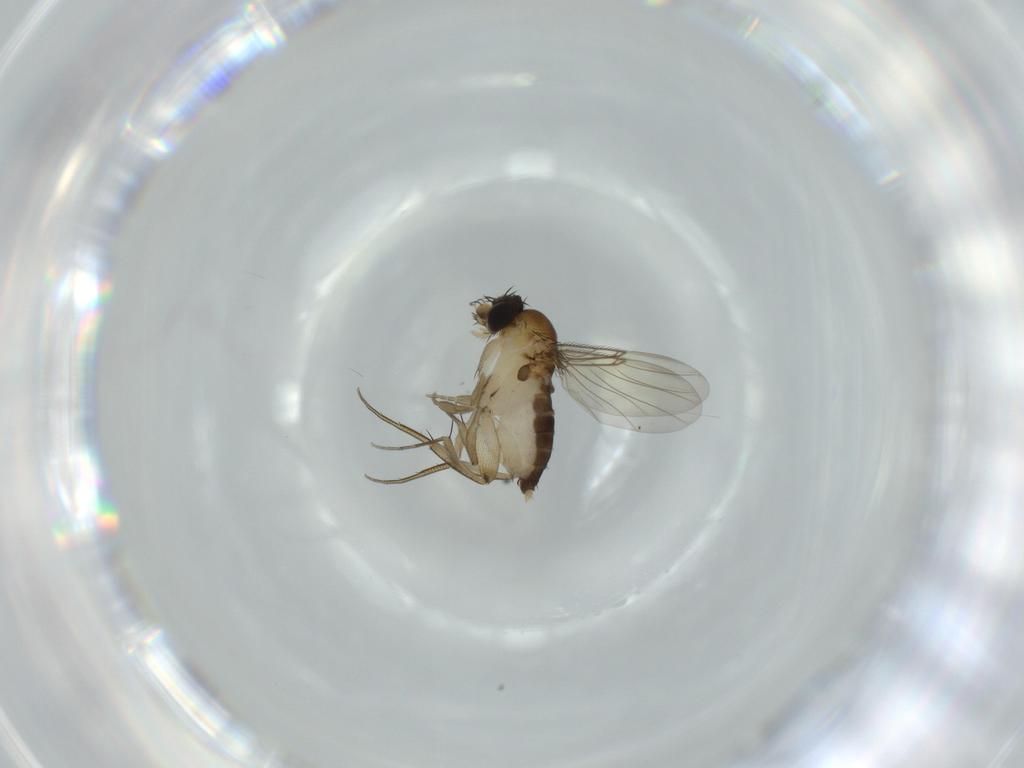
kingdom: Animalia
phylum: Arthropoda
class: Insecta
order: Diptera
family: Phoridae
